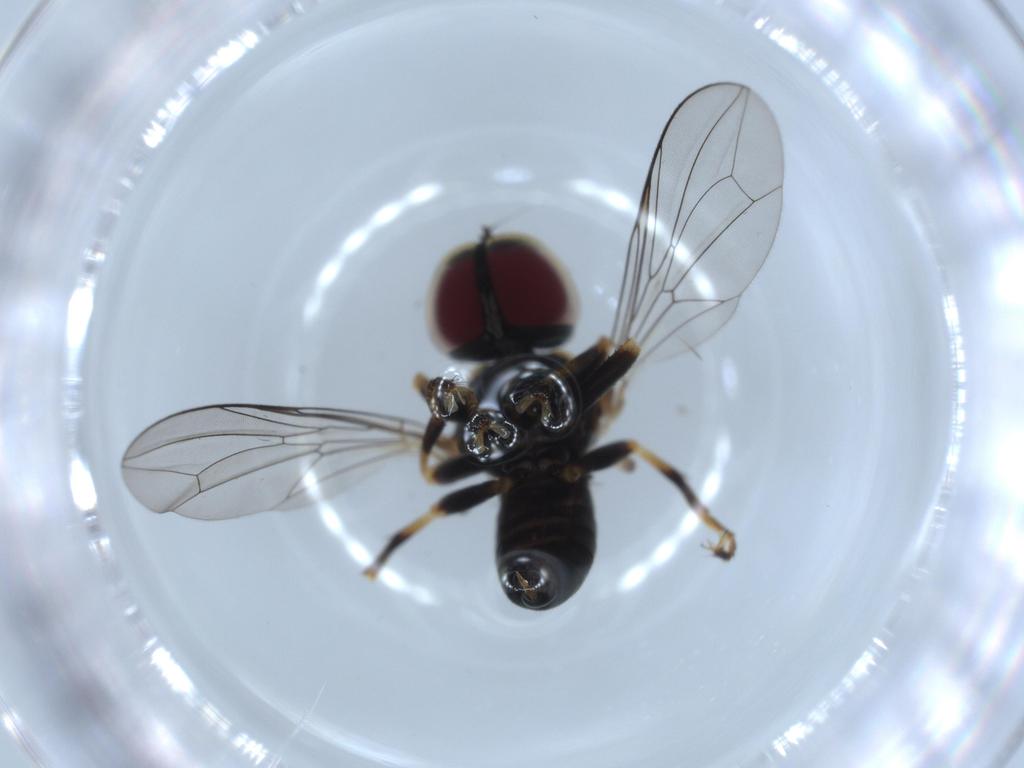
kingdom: Animalia
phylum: Arthropoda
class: Insecta
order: Diptera
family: Pipunculidae
